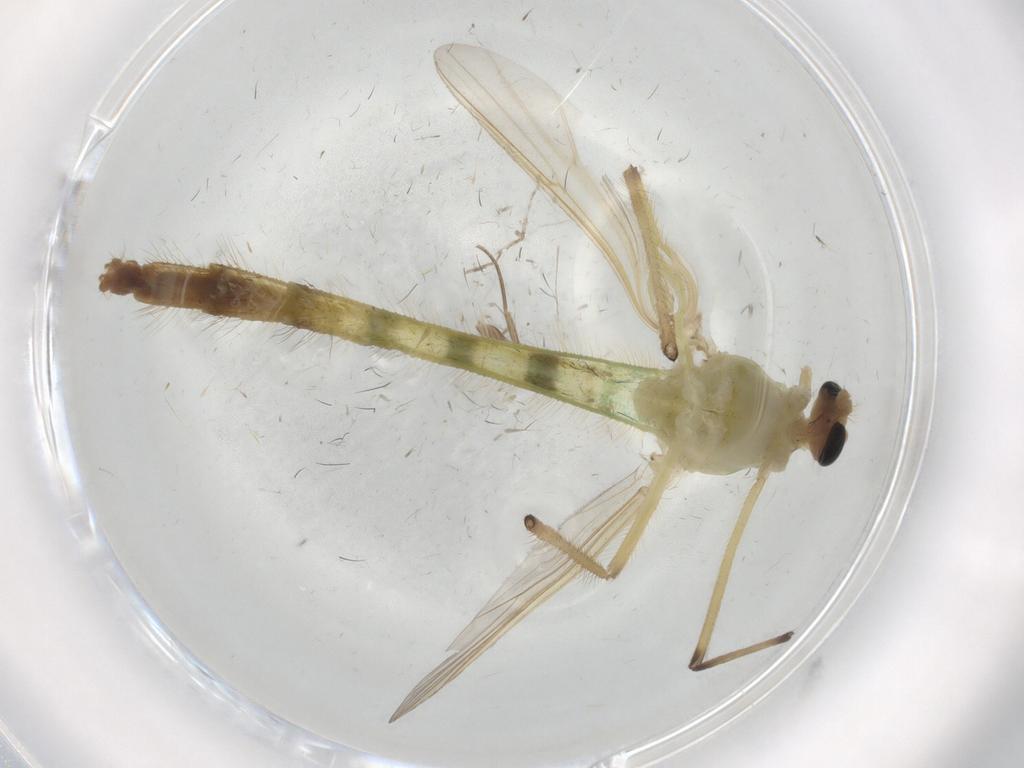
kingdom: Animalia
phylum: Arthropoda
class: Insecta
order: Diptera
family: Chironomidae
